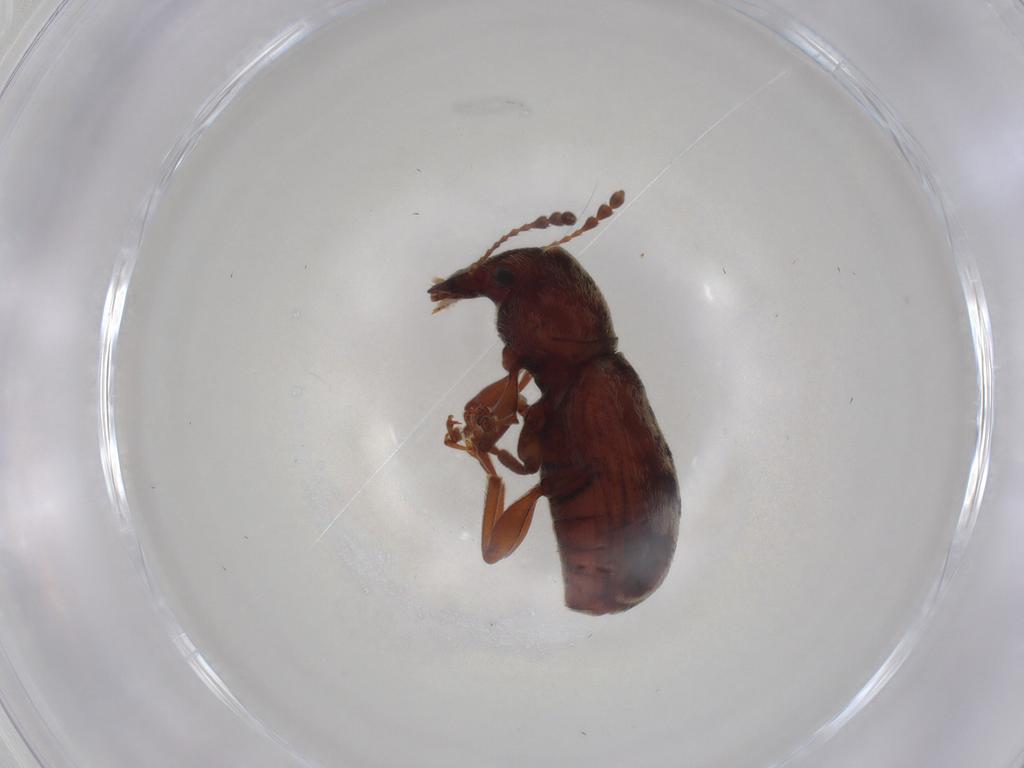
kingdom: Animalia
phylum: Arthropoda
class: Insecta
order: Coleoptera
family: Anthribidae
